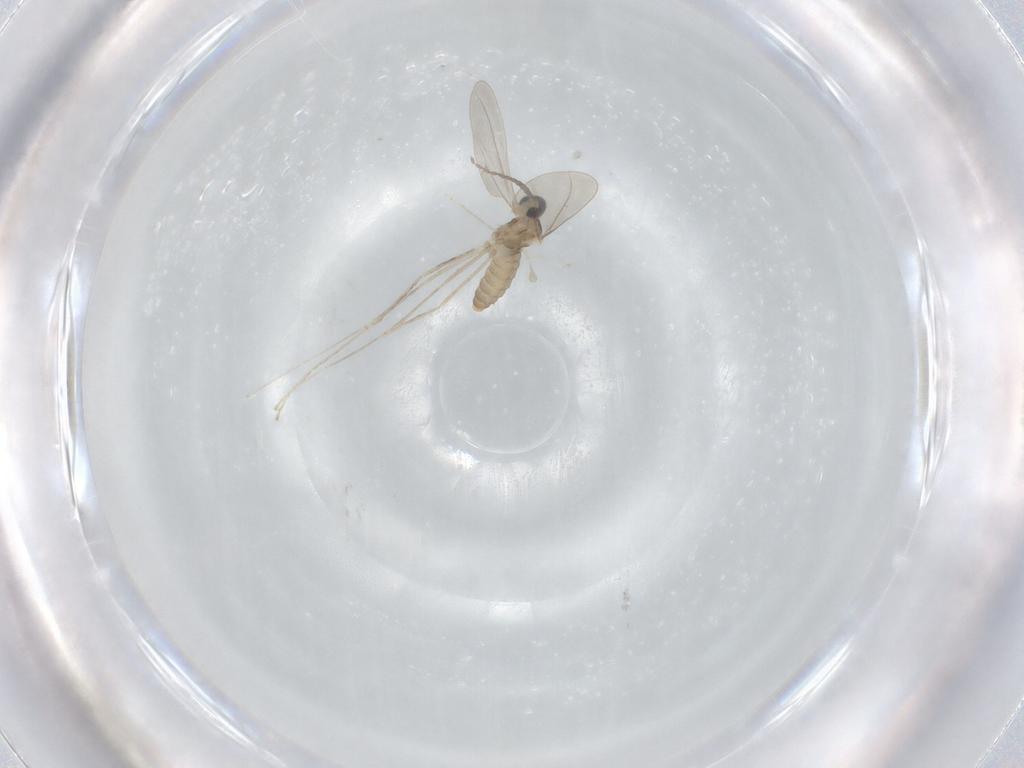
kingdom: Animalia
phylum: Arthropoda
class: Insecta
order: Diptera
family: Cecidomyiidae
